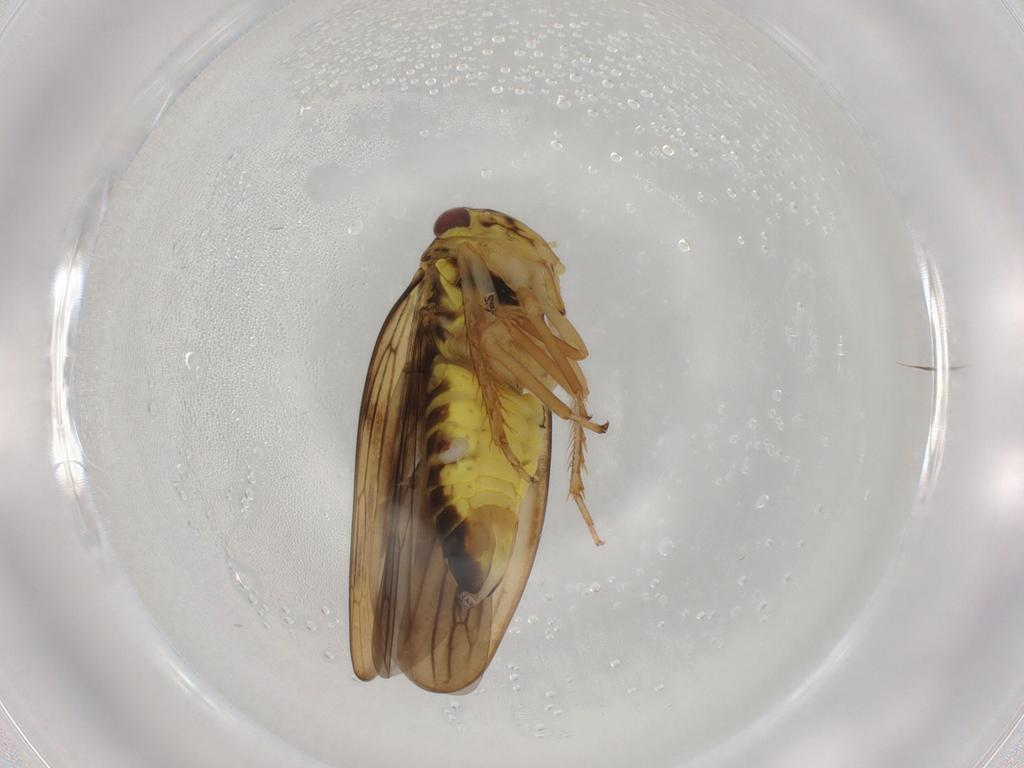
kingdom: Animalia
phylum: Arthropoda
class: Insecta
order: Hemiptera
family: Cicadellidae
